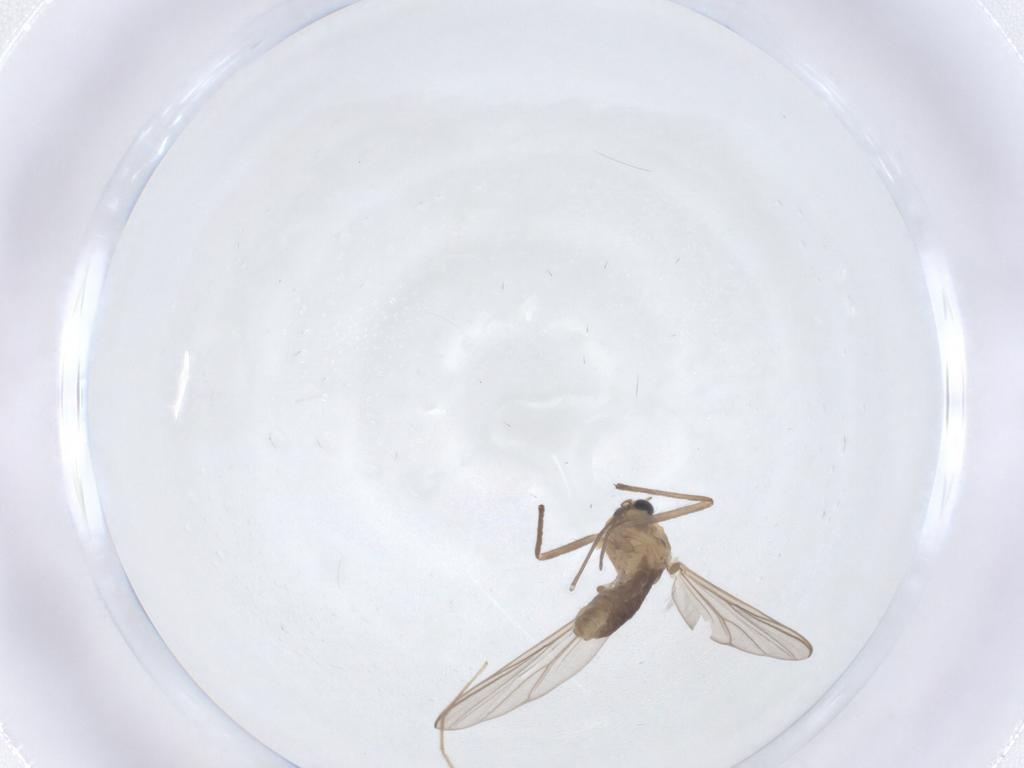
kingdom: Animalia
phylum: Arthropoda
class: Insecta
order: Diptera
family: Chironomidae
